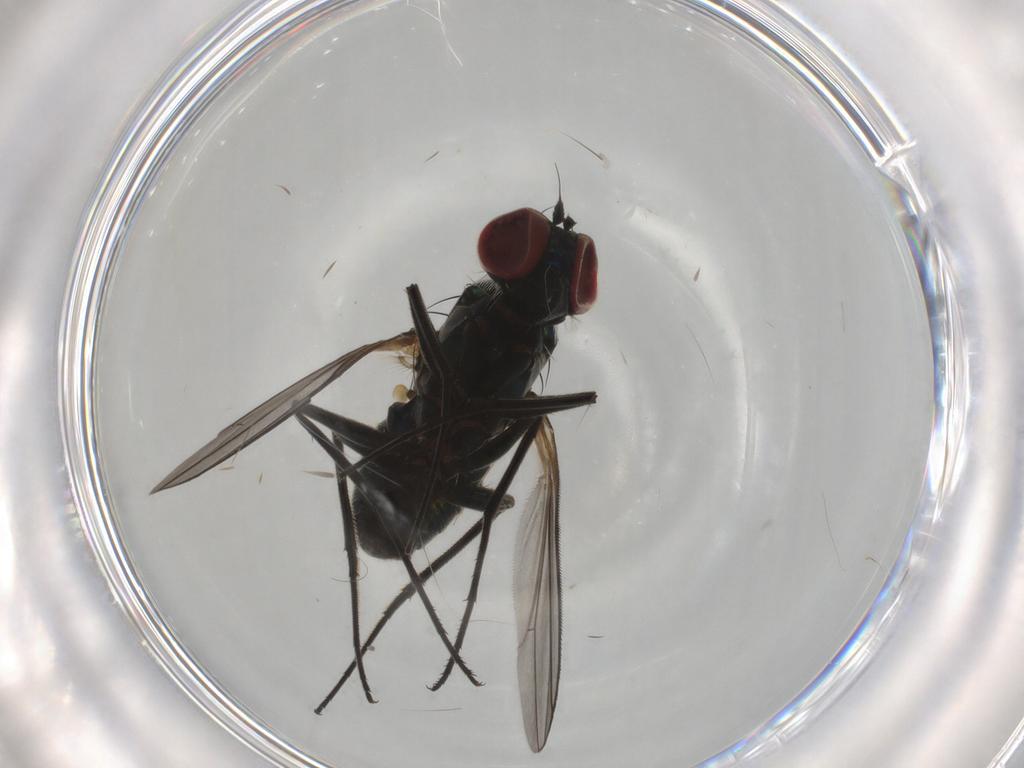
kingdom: Animalia
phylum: Arthropoda
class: Insecta
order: Diptera
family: Dolichopodidae
